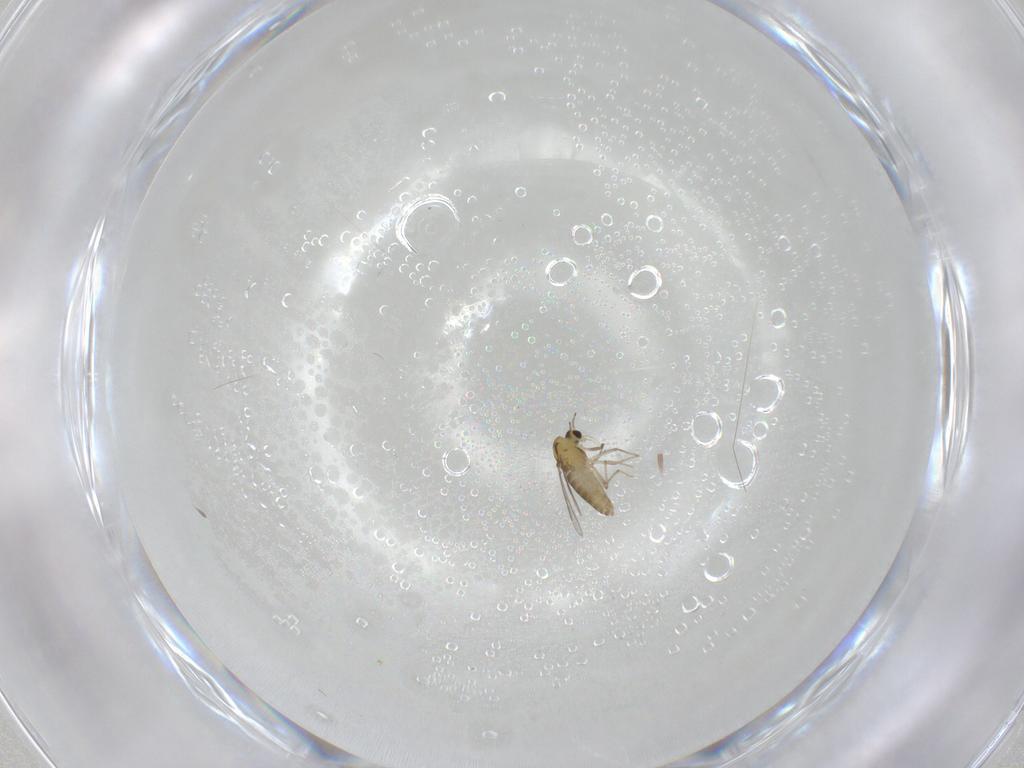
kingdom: Animalia
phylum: Arthropoda
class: Insecta
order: Diptera
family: Chironomidae
